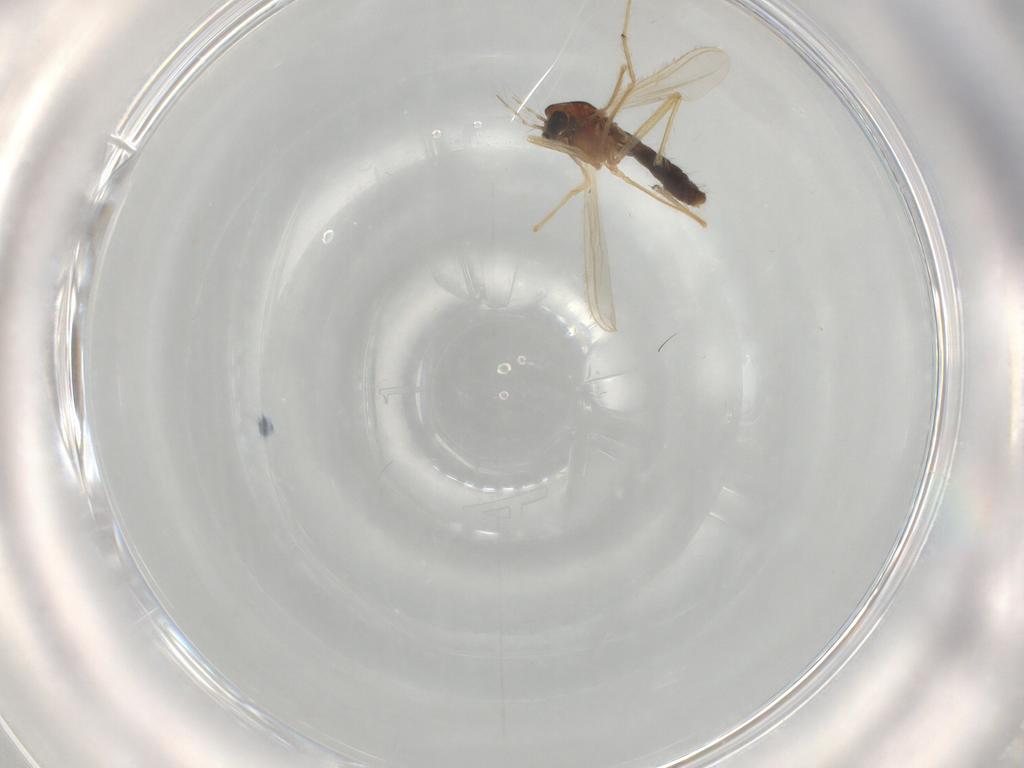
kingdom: Animalia
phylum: Arthropoda
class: Insecta
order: Diptera
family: Chironomidae
